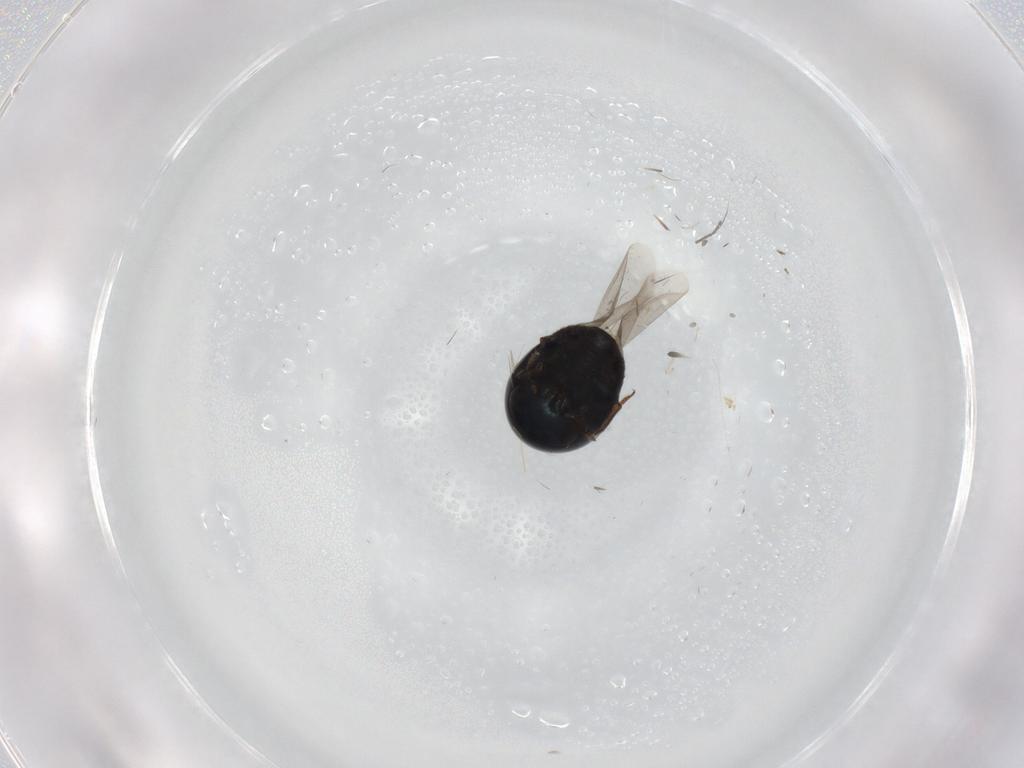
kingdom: Animalia
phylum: Arthropoda
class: Insecta
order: Coleoptera
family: Cybocephalidae
